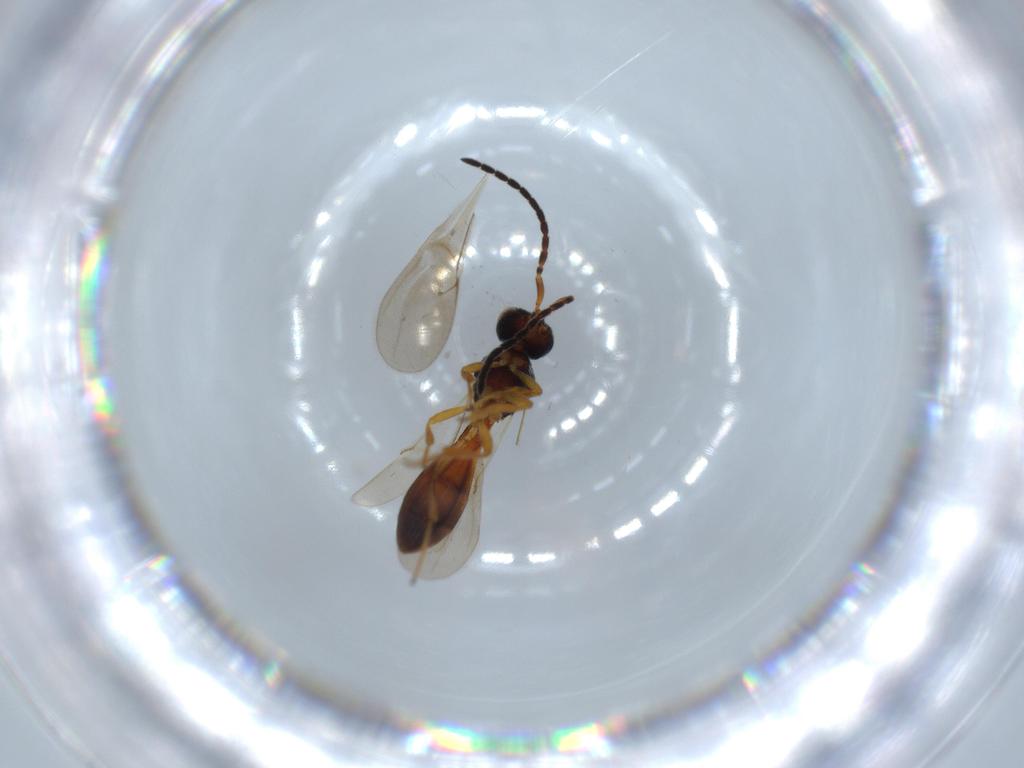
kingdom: Animalia
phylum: Arthropoda
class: Insecta
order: Hymenoptera
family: Scelionidae
